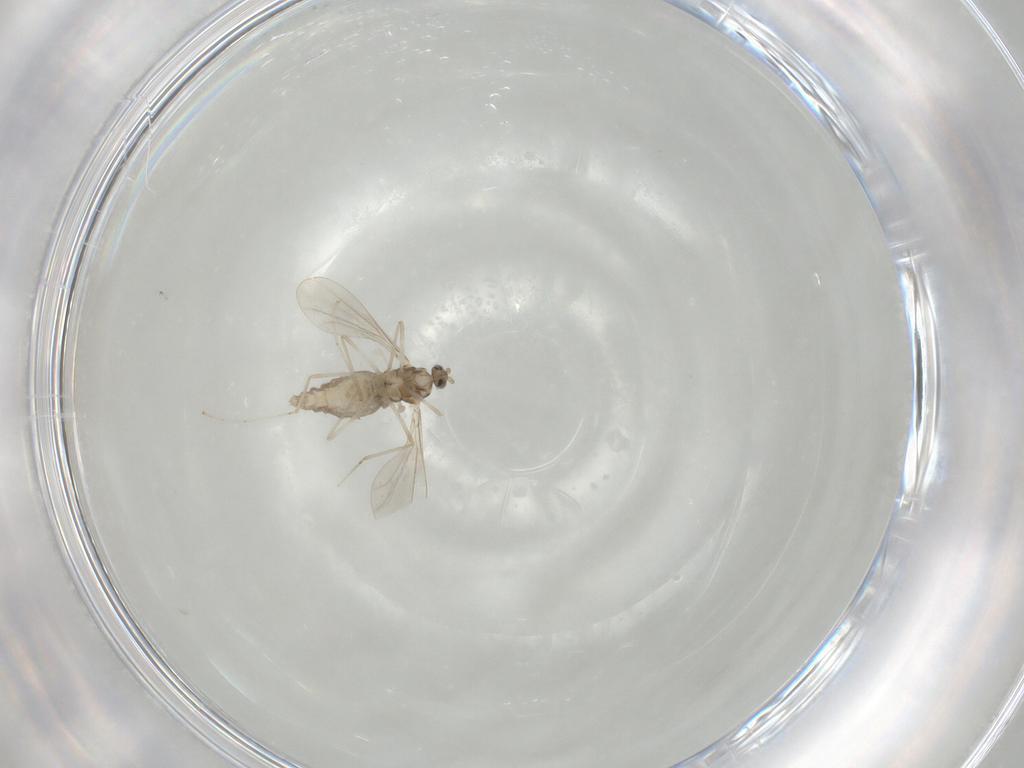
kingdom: Animalia
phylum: Arthropoda
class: Insecta
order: Diptera
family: Cecidomyiidae
